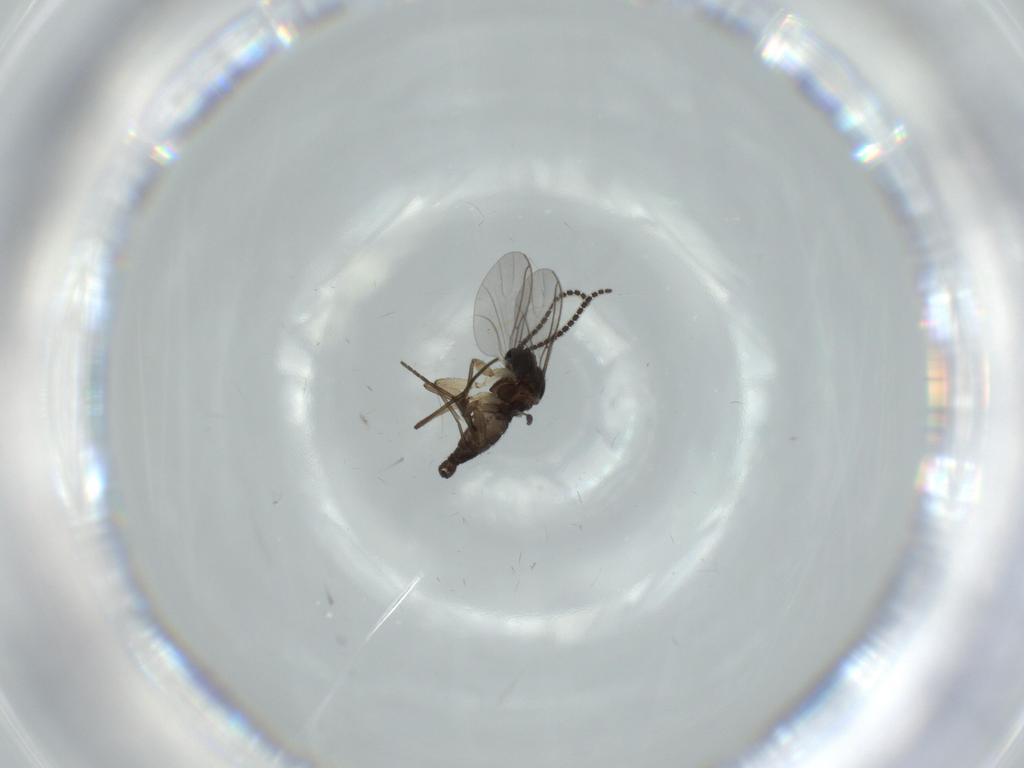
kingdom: Animalia
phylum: Arthropoda
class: Insecta
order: Diptera
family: Sciaridae
